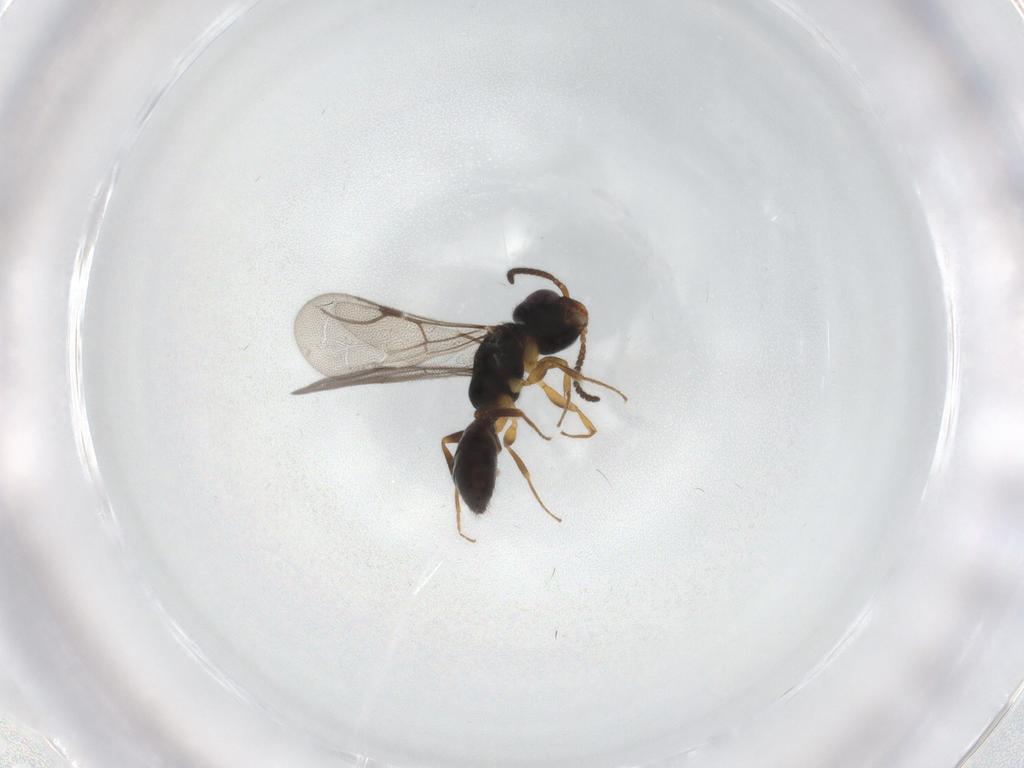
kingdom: Animalia
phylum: Arthropoda
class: Insecta
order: Hymenoptera
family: Bethylidae
